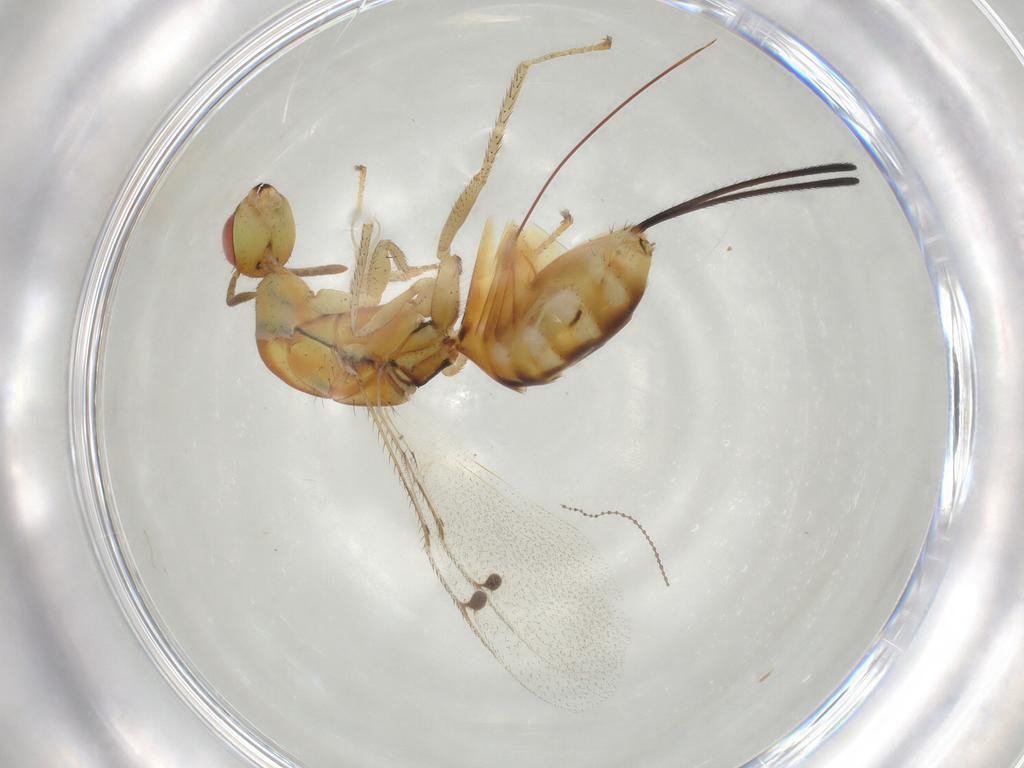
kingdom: Animalia
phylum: Arthropoda
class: Insecta
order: Hymenoptera
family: Megastigmidae
